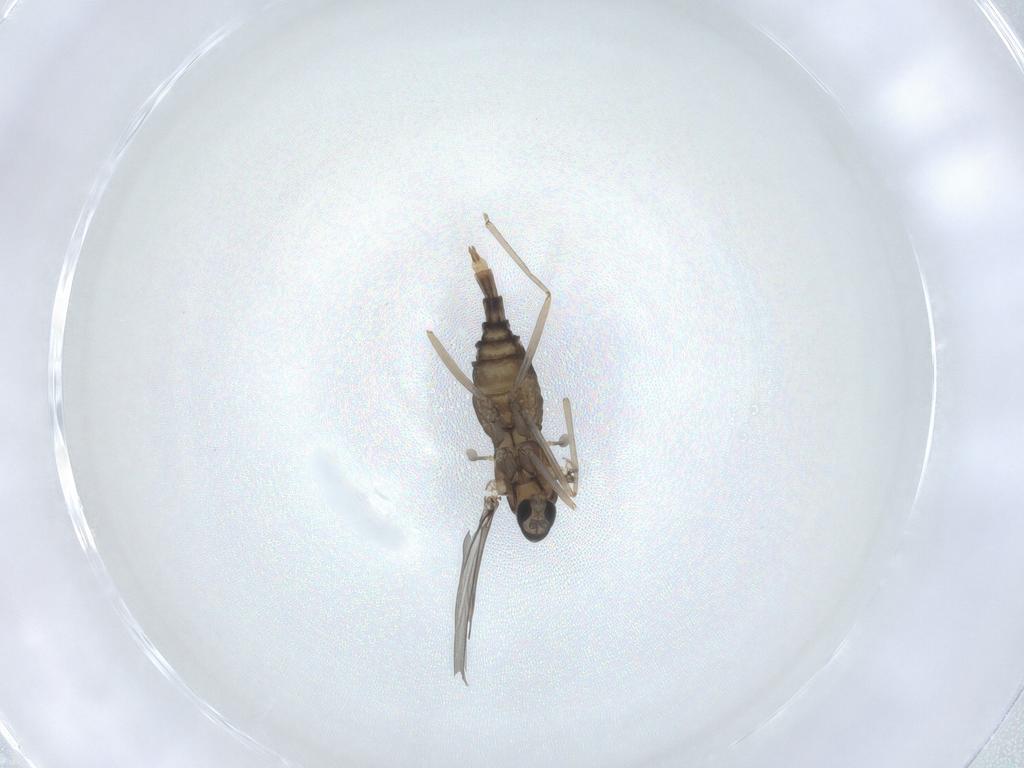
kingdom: Animalia
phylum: Arthropoda
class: Insecta
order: Diptera
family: Cecidomyiidae
